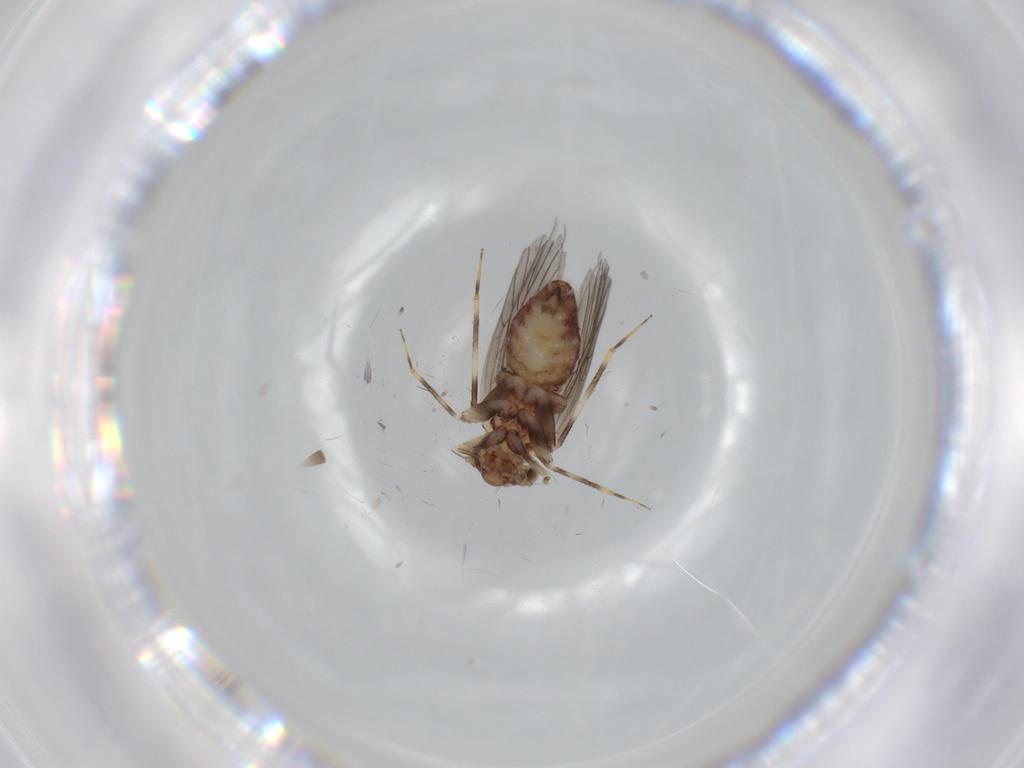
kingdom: Animalia
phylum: Arthropoda
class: Insecta
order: Psocodea
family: Lepidopsocidae
